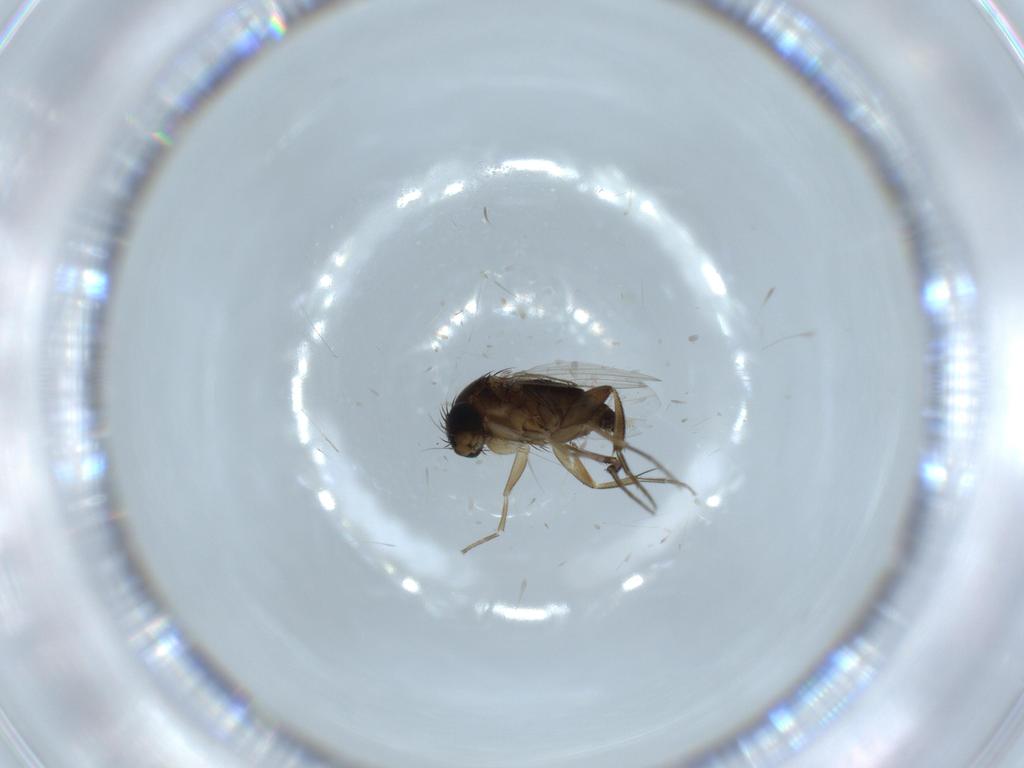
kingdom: Animalia
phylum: Arthropoda
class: Insecta
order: Diptera
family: Phoridae
